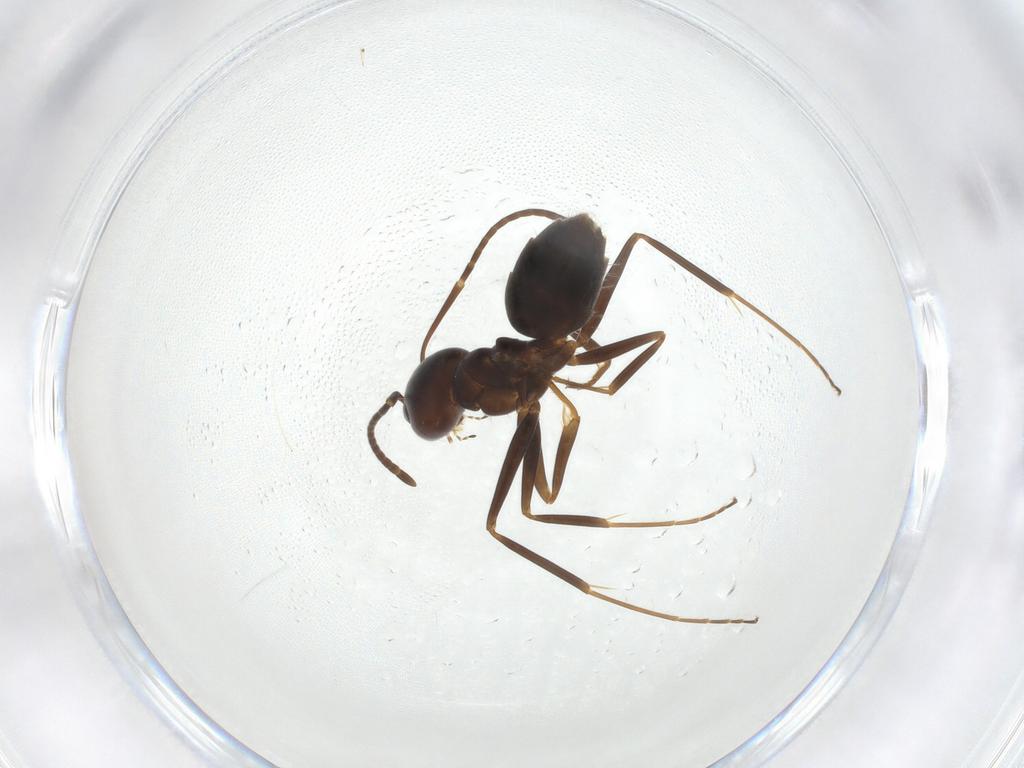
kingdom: Animalia
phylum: Arthropoda
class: Insecta
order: Hymenoptera
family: Formicidae
